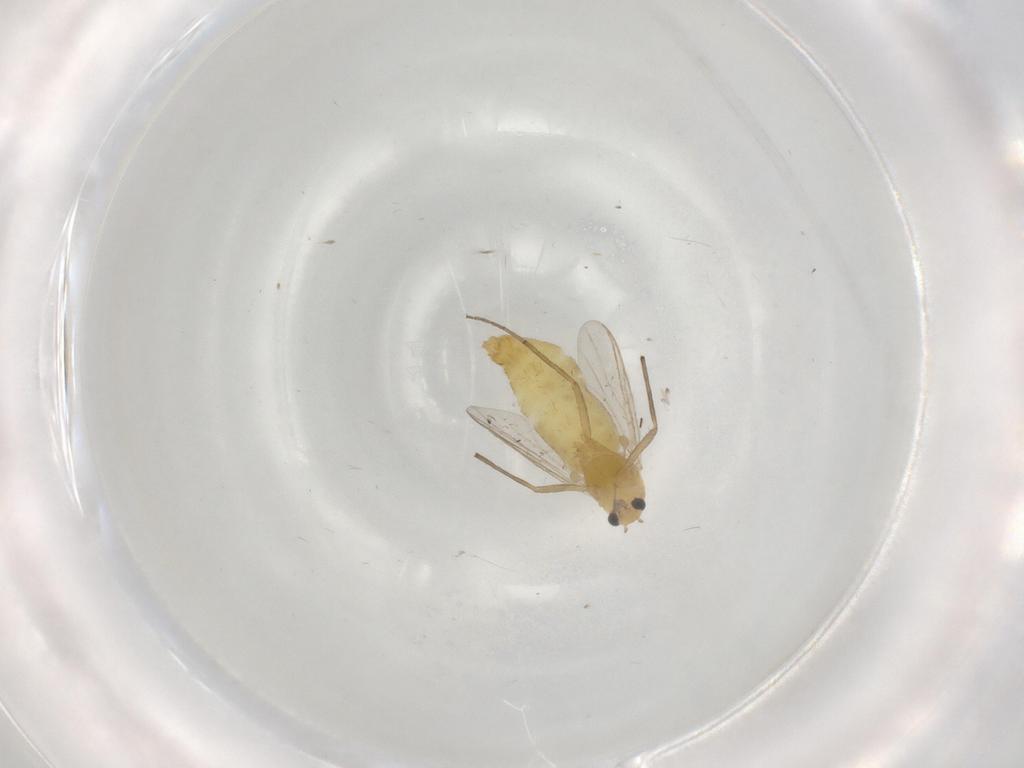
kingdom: Animalia
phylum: Arthropoda
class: Insecta
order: Diptera
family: Chironomidae
